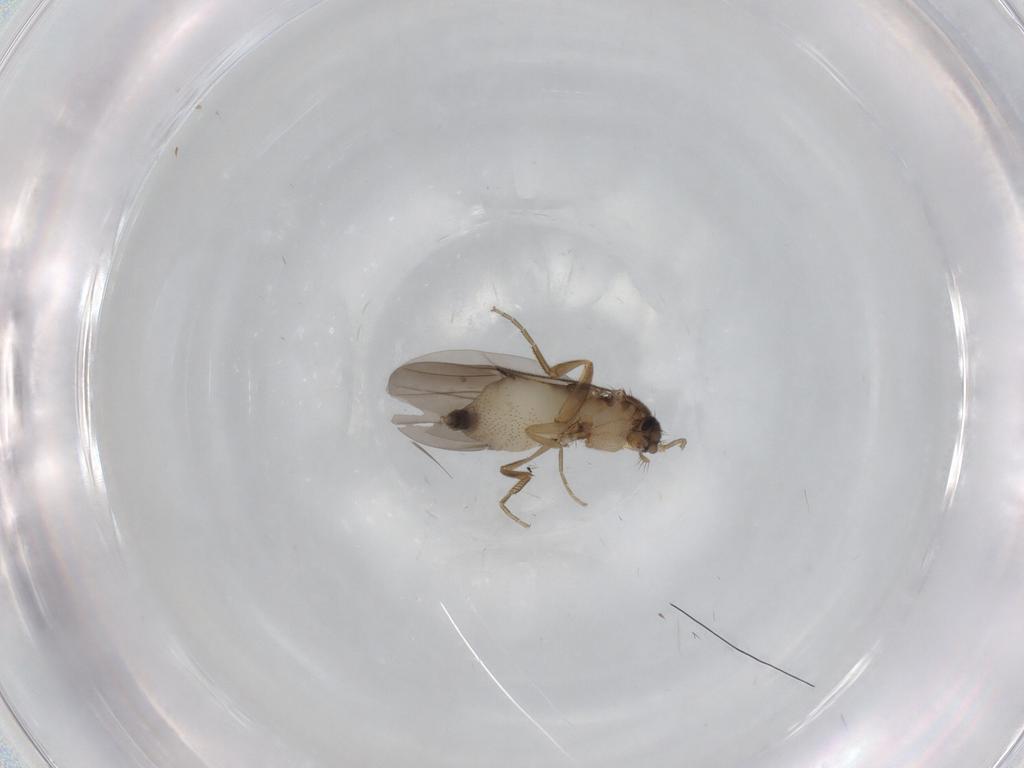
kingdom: Animalia
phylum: Arthropoda
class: Insecta
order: Diptera
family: Phoridae
